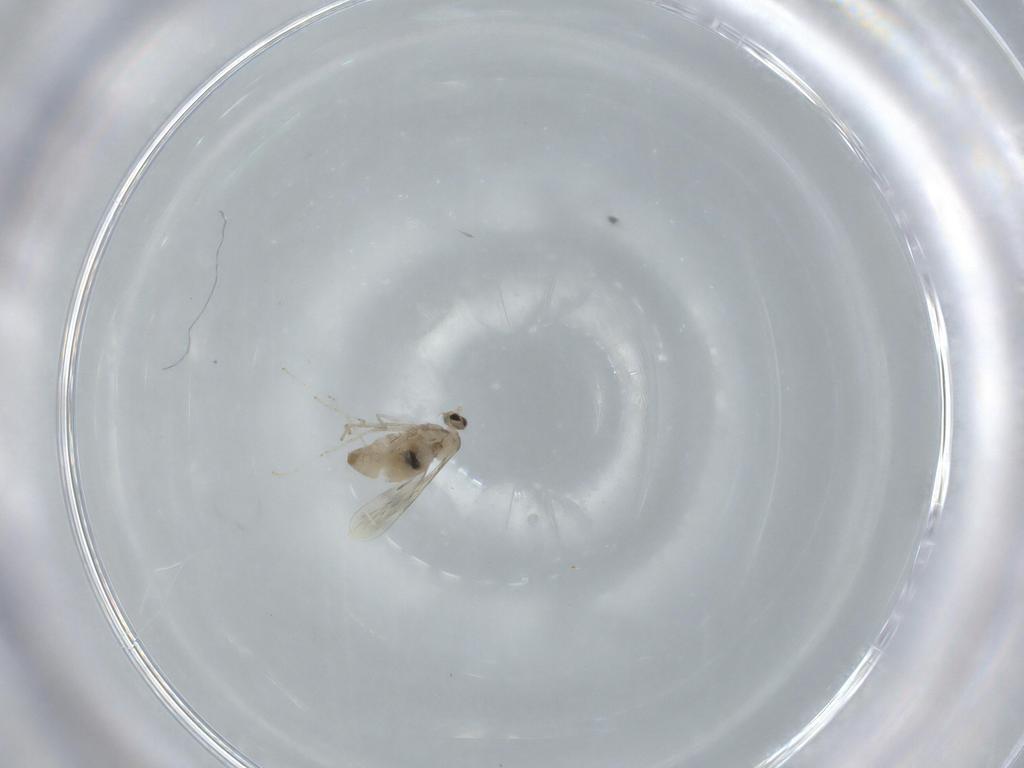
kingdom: Animalia
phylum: Arthropoda
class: Insecta
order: Diptera
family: Cecidomyiidae
